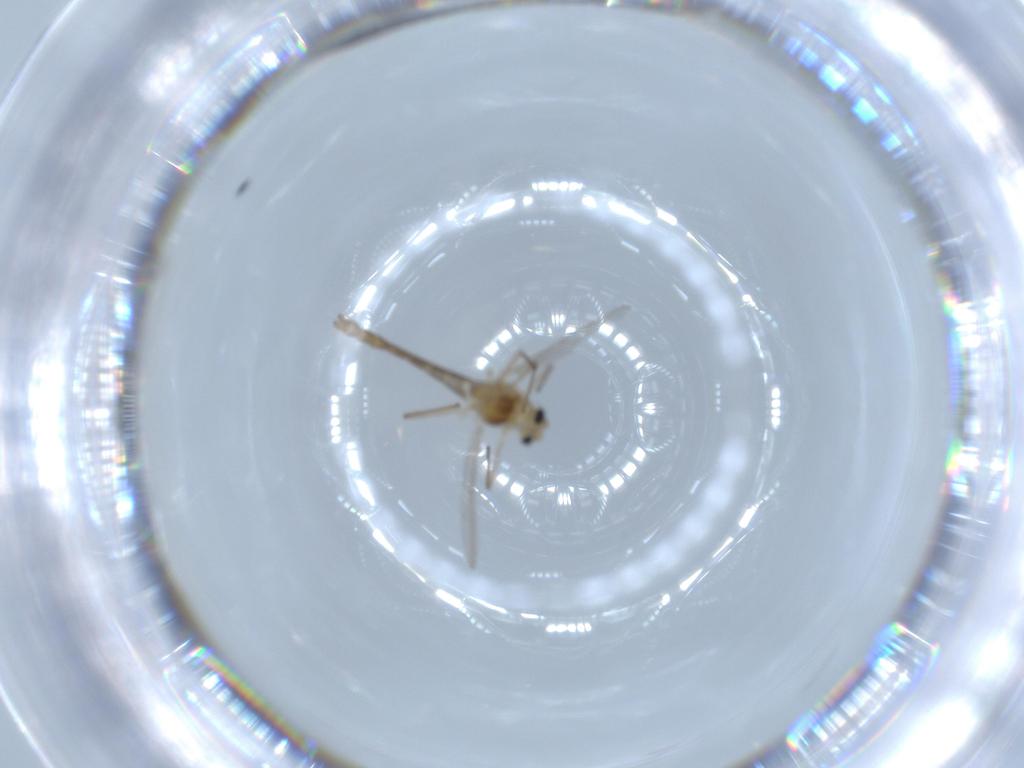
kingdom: Animalia
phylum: Arthropoda
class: Insecta
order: Diptera
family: Chironomidae
